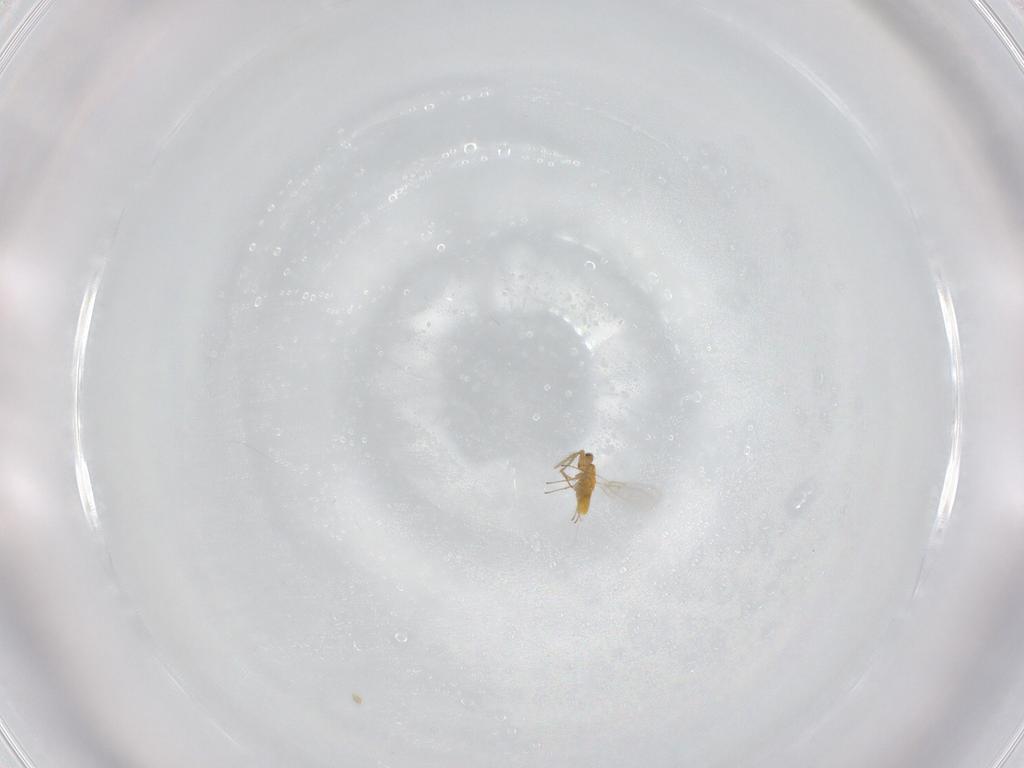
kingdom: Animalia
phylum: Arthropoda
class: Insecta
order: Hymenoptera
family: Aphelinidae
